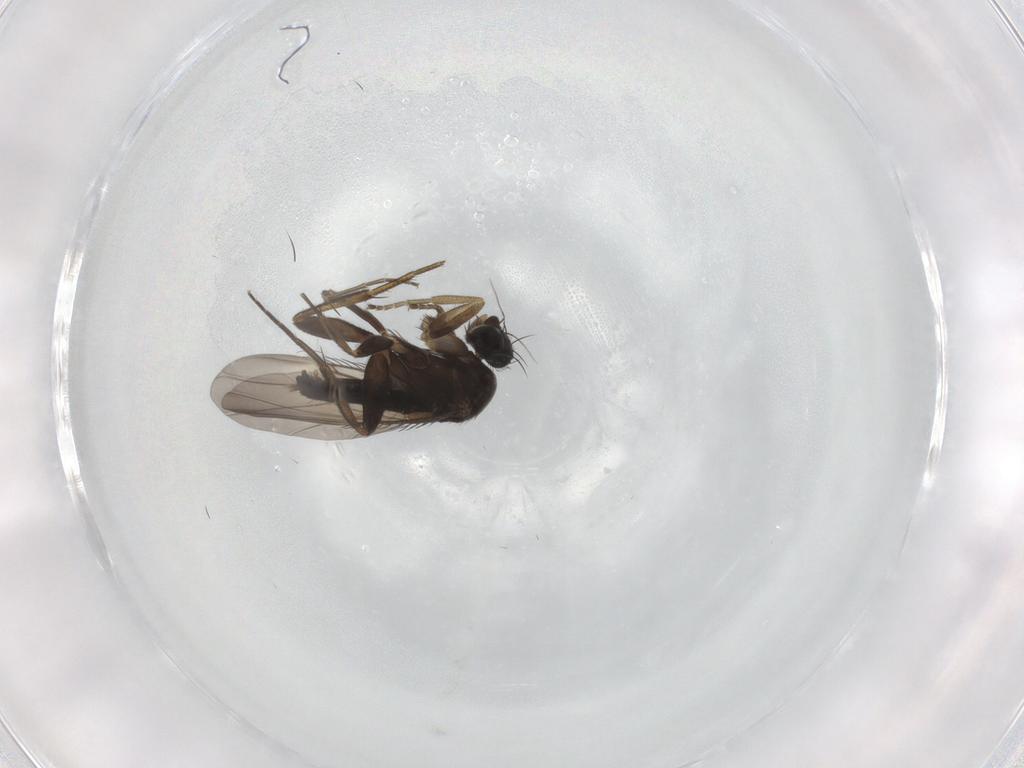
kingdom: Animalia
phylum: Arthropoda
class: Insecta
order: Diptera
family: Phoridae
